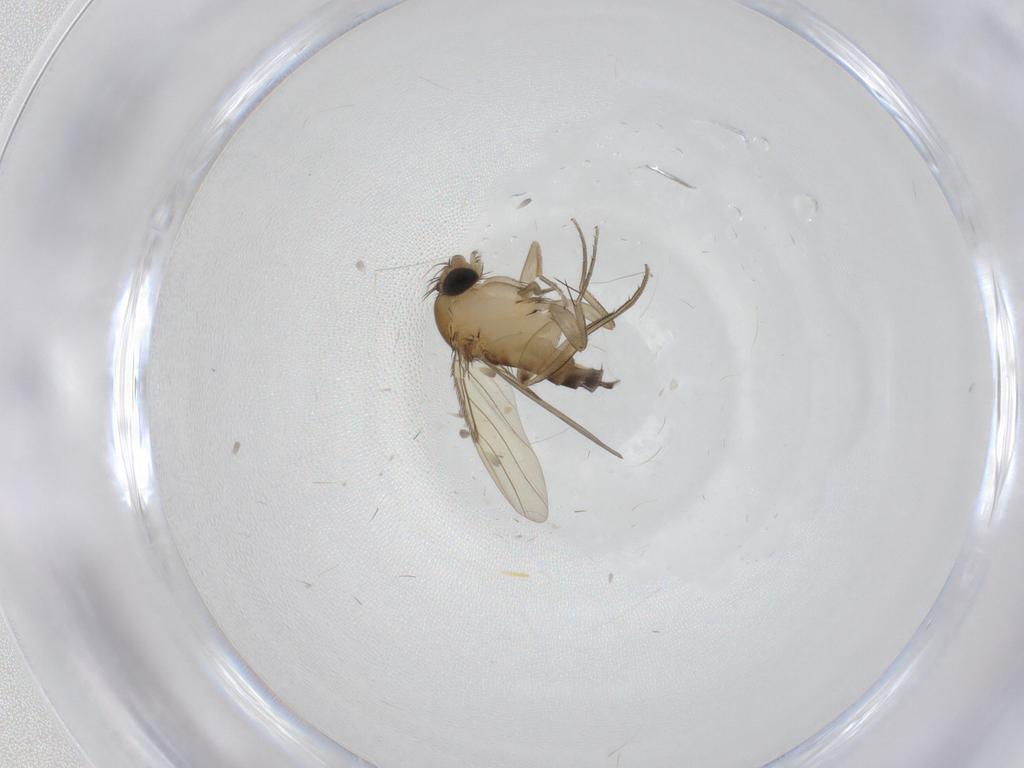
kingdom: Animalia
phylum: Arthropoda
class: Insecta
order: Diptera
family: Phoridae
